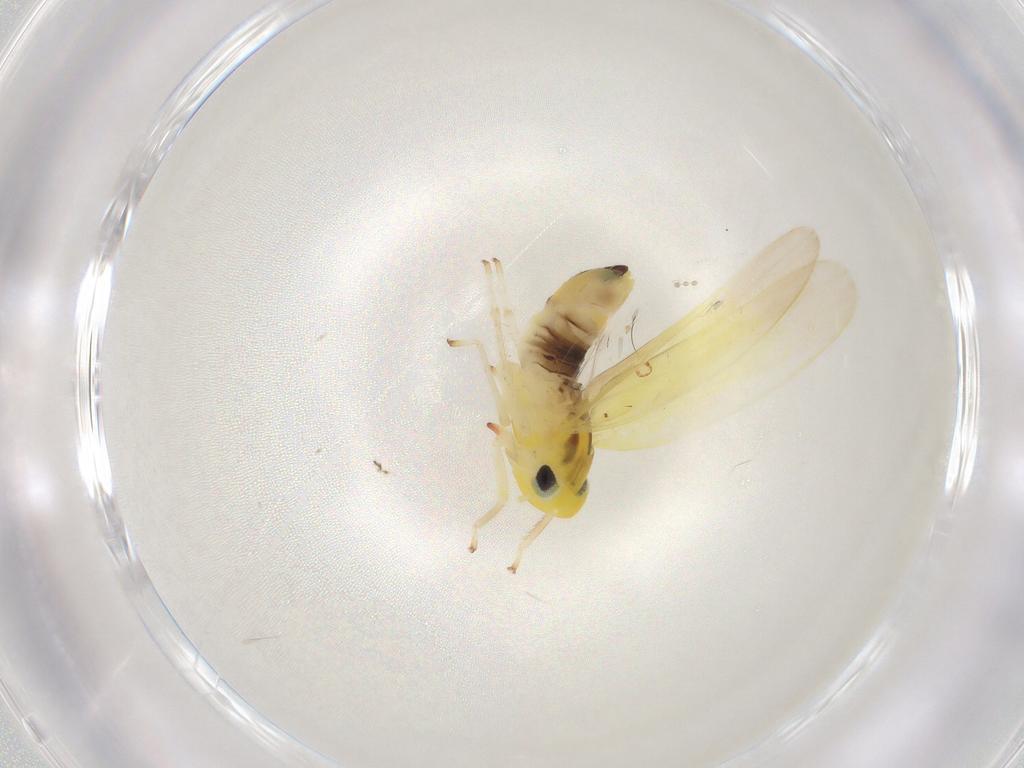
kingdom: Animalia
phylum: Arthropoda
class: Insecta
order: Hemiptera
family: Cicadellidae
